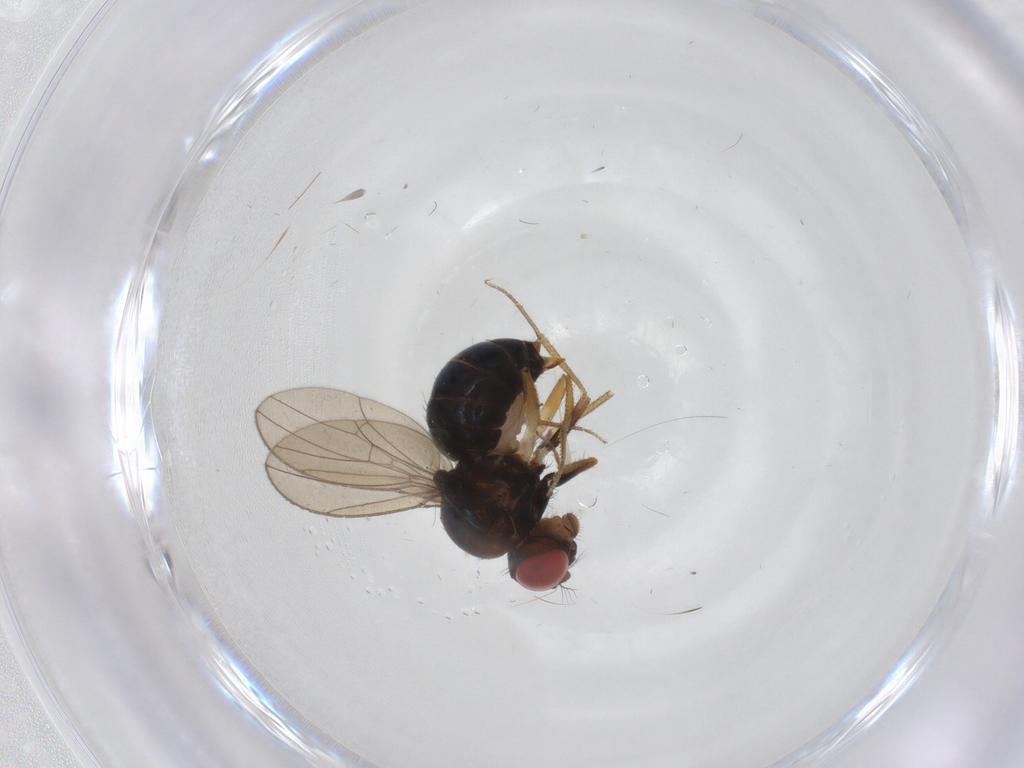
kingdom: Animalia
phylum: Arthropoda
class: Insecta
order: Diptera
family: Drosophilidae
